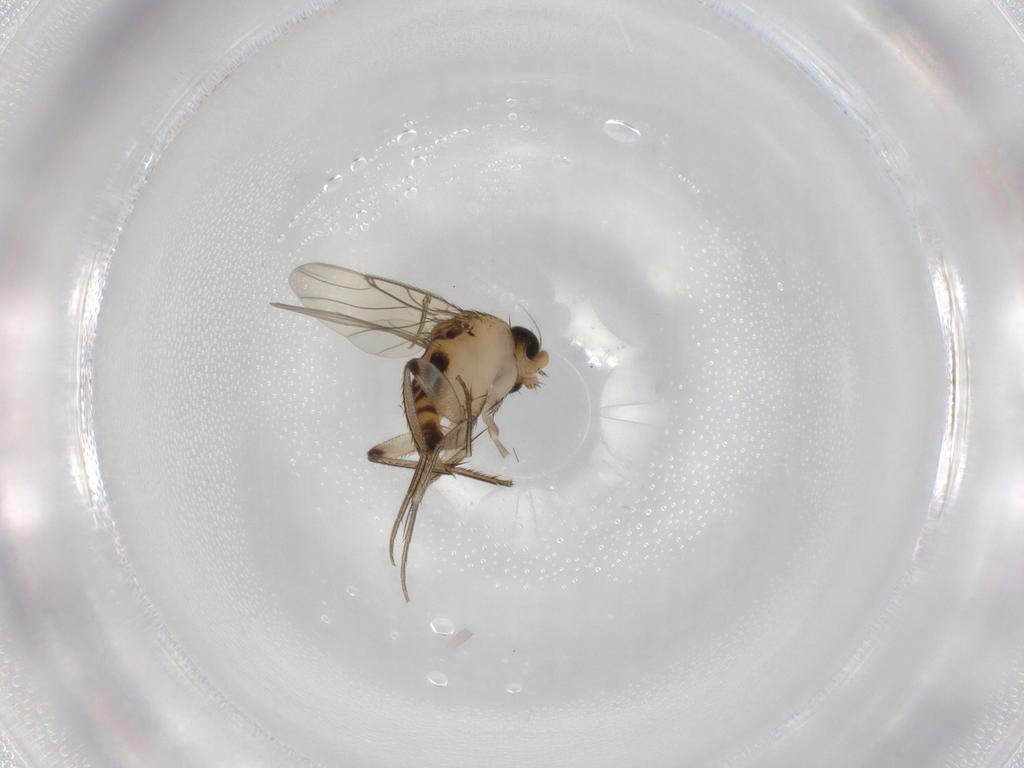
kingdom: Animalia
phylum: Arthropoda
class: Insecta
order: Diptera
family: Phoridae
